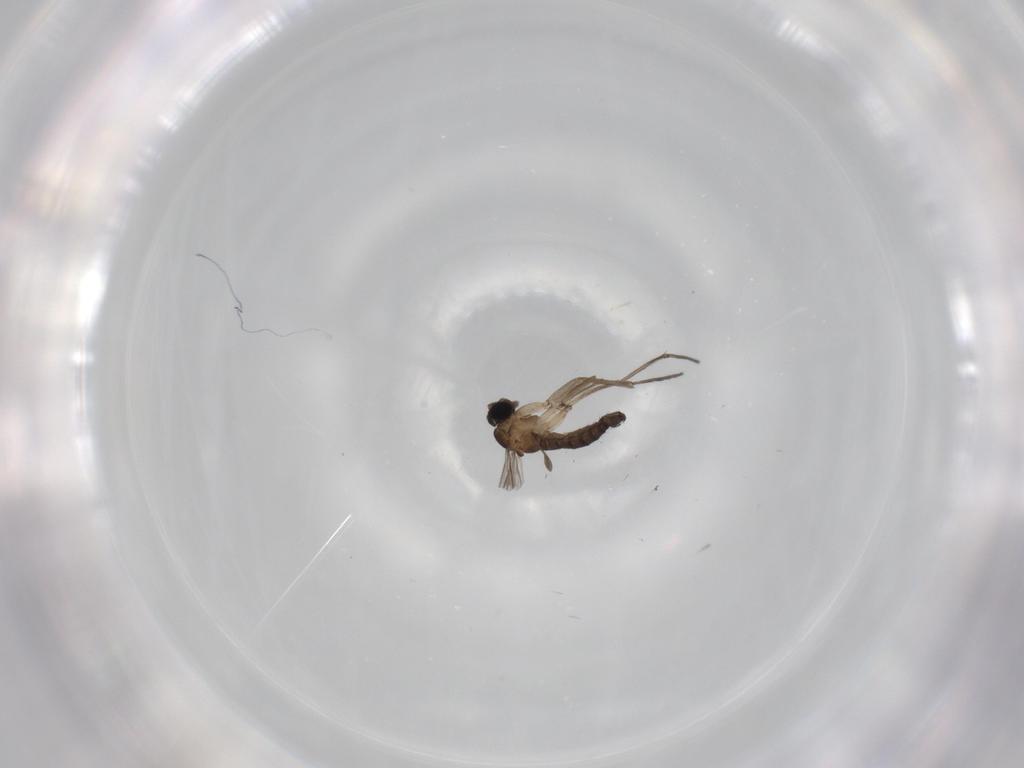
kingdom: Animalia
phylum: Arthropoda
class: Insecta
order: Diptera
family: Sciaridae
